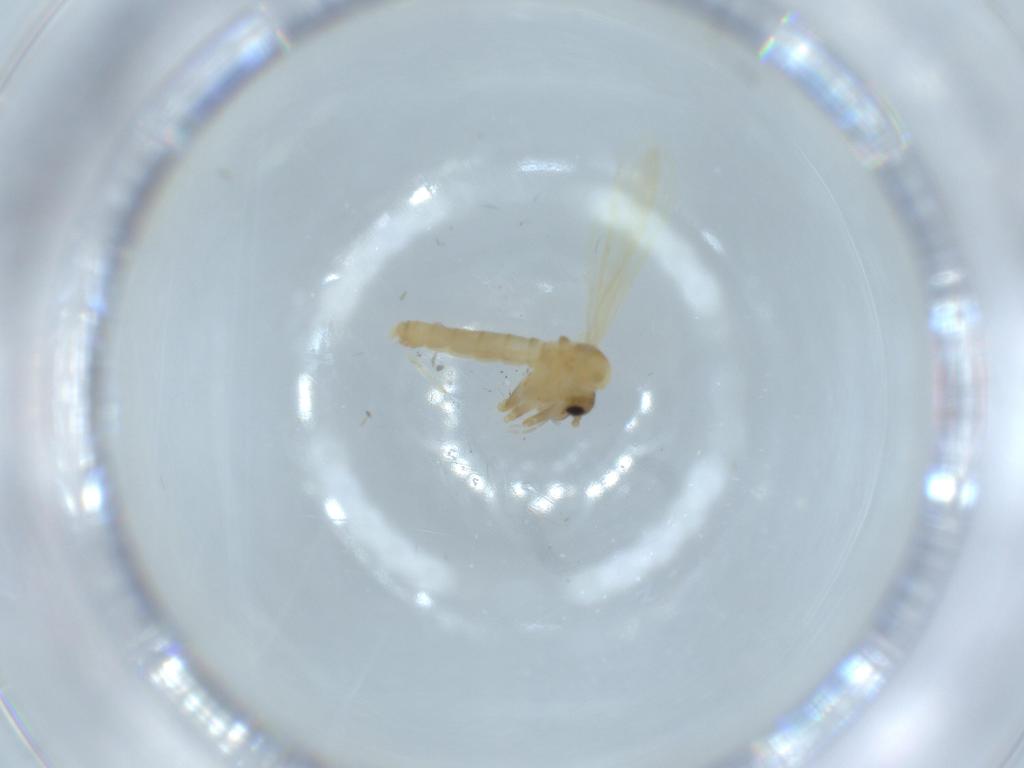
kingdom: Animalia
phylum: Arthropoda
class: Insecta
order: Diptera
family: Psychodidae
